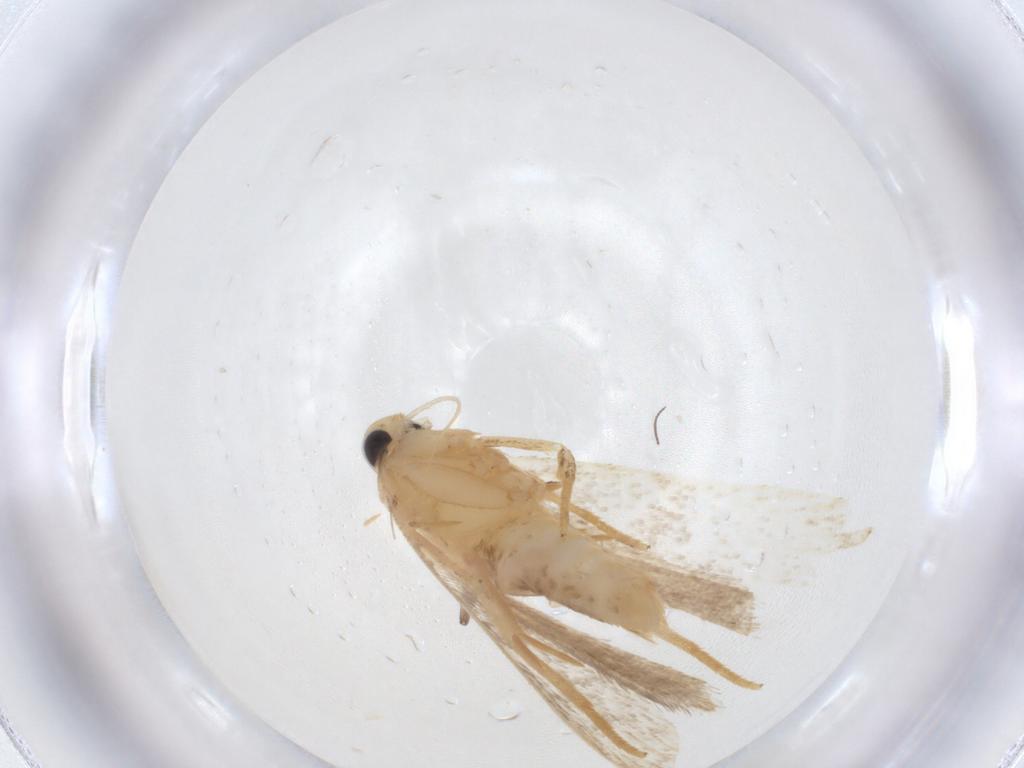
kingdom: Animalia
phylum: Arthropoda
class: Insecta
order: Lepidoptera
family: Gelechiidae
